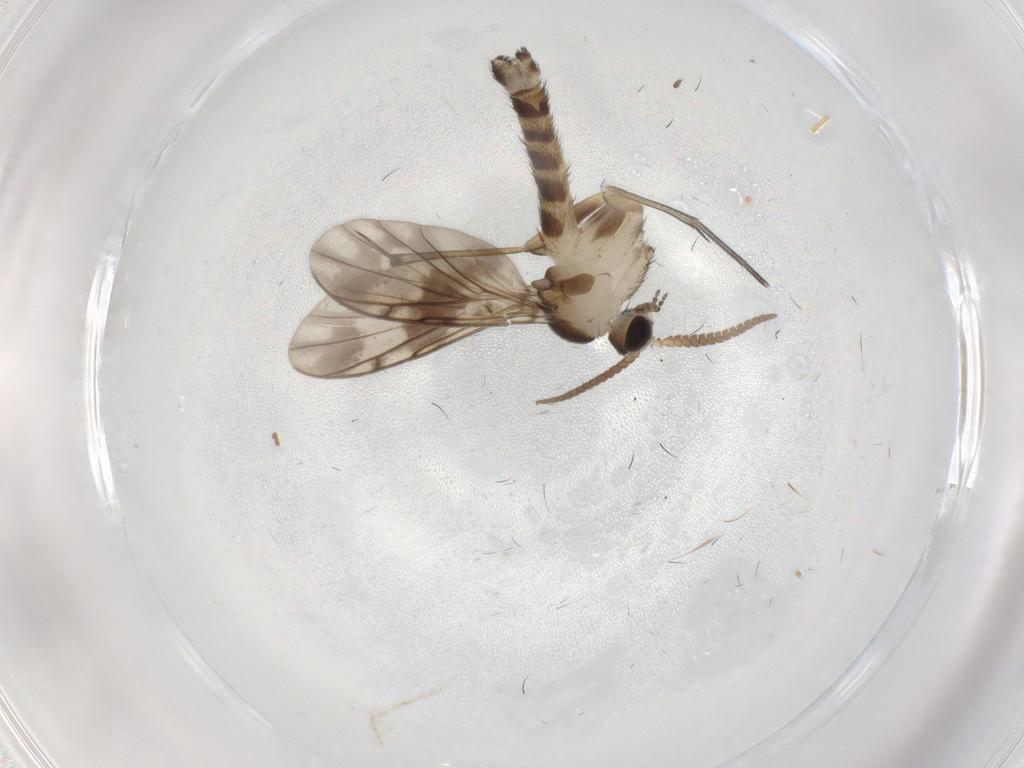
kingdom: Animalia
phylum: Arthropoda
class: Insecta
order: Diptera
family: Keroplatidae
